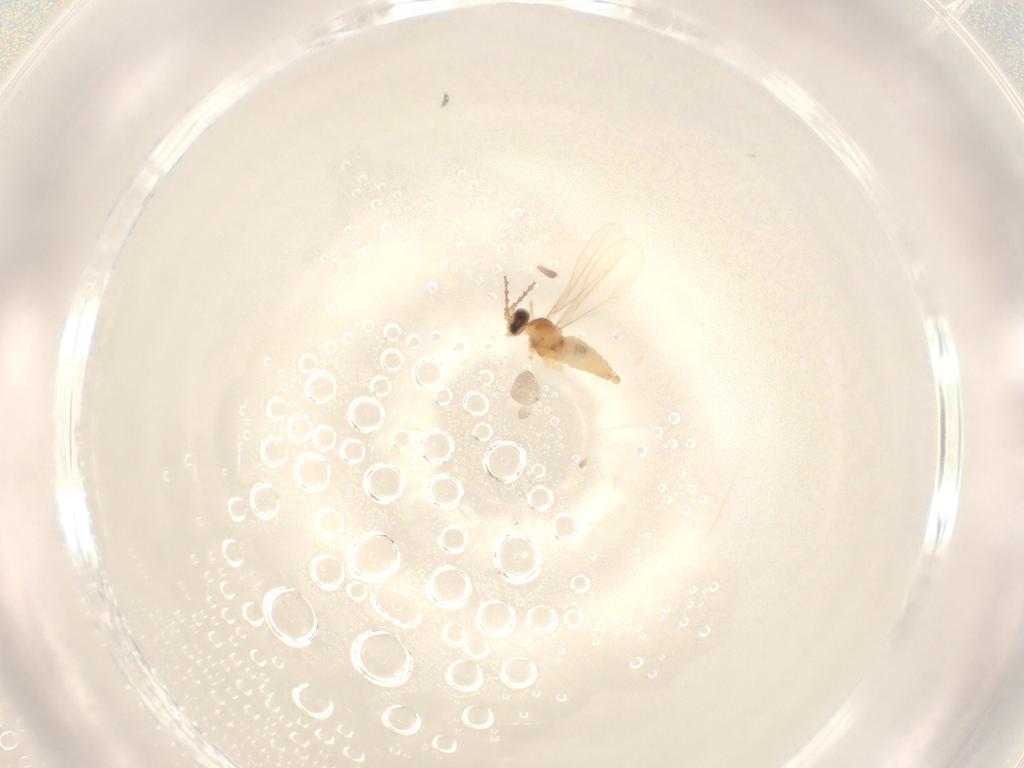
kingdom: Animalia
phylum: Arthropoda
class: Insecta
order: Diptera
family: Cecidomyiidae
